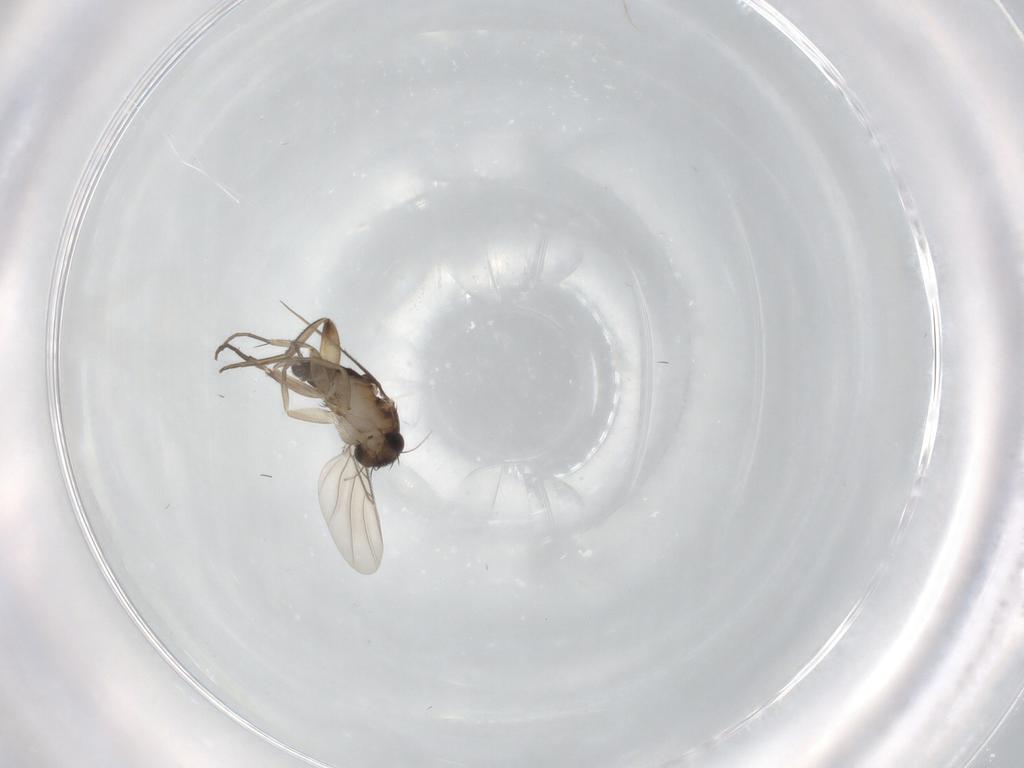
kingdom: Animalia
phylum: Arthropoda
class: Insecta
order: Diptera
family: Phoridae
